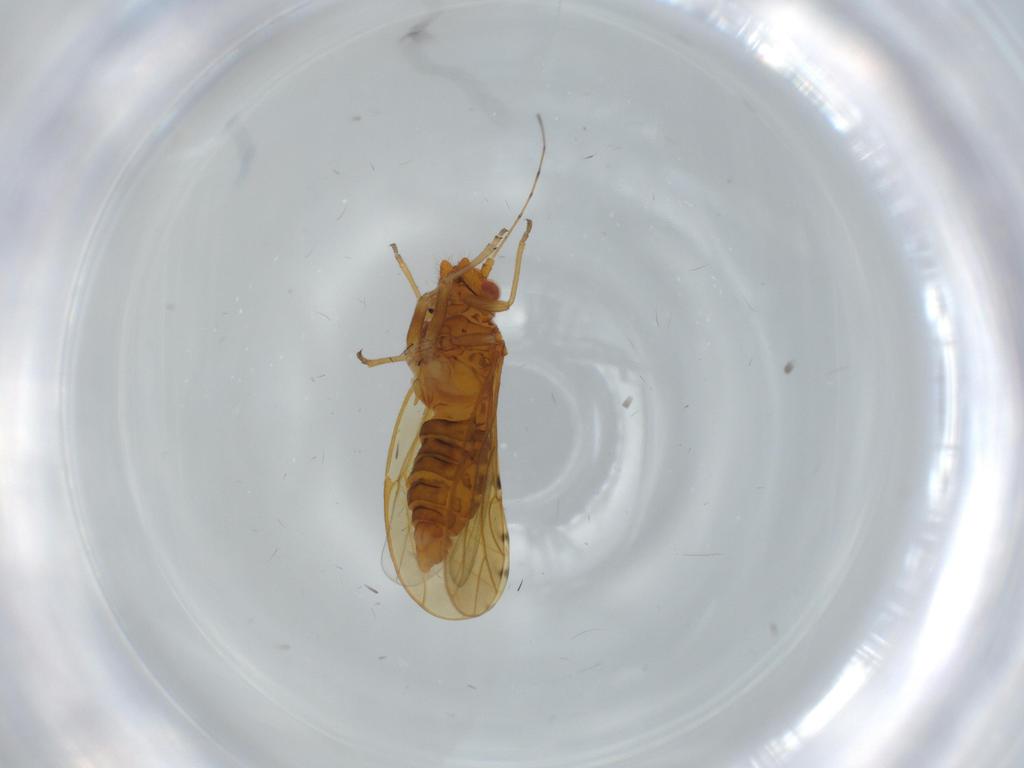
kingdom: Animalia
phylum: Arthropoda
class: Insecta
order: Hemiptera
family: Psylloidea_incertae_sedis
